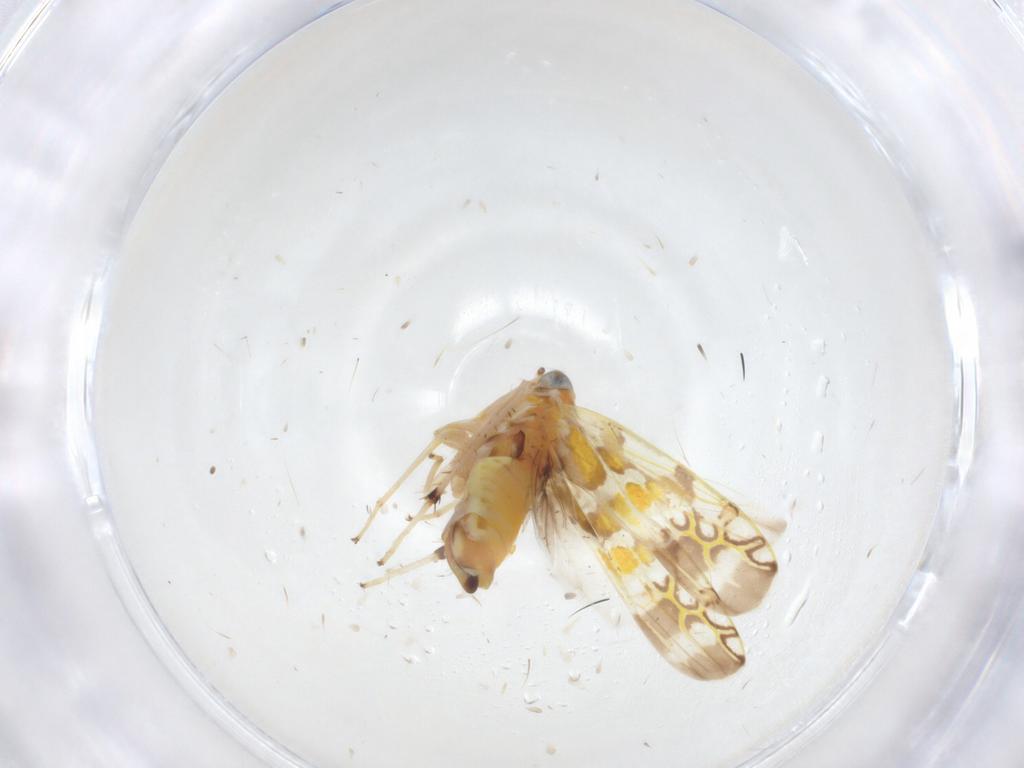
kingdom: Animalia
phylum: Arthropoda
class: Insecta
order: Hemiptera
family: Cicadellidae
